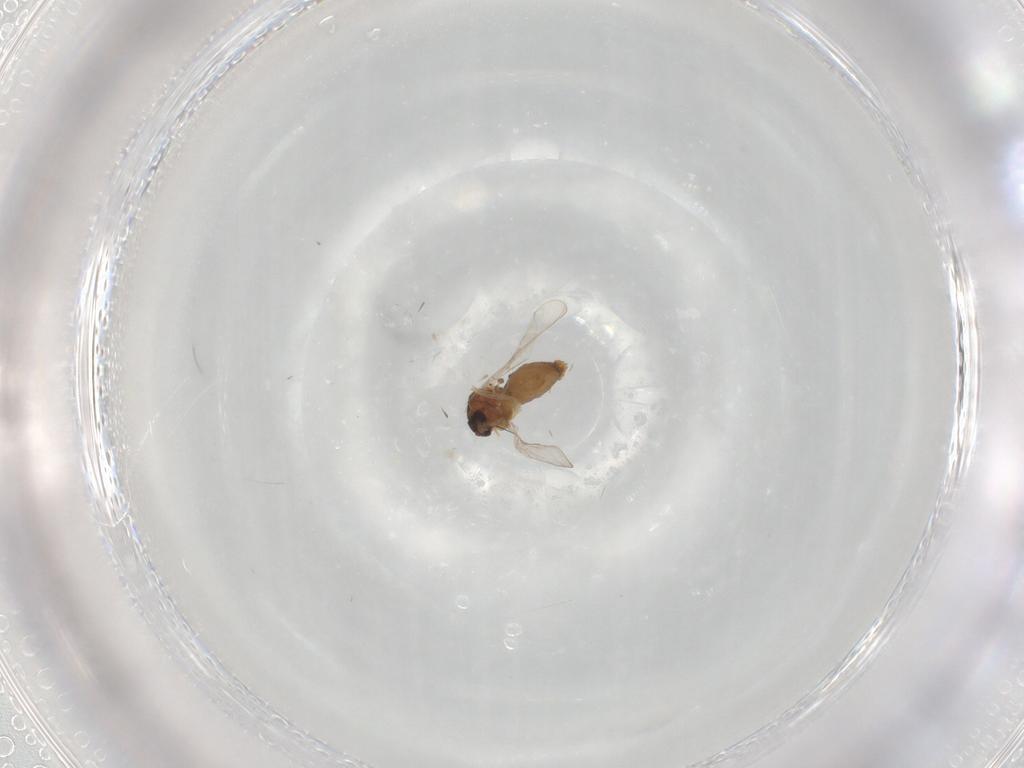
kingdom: Animalia
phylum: Arthropoda
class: Insecta
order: Diptera
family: Ceratopogonidae
